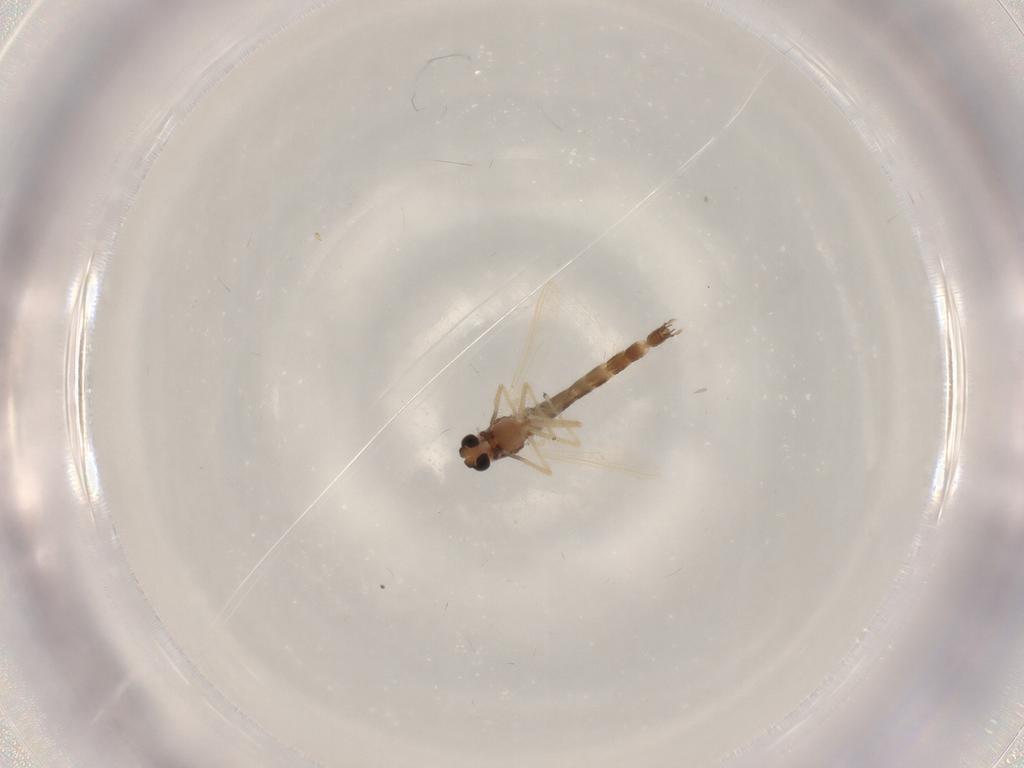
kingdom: Animalia
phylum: Arthropoda
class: Insecta
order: Diptera
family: Chironomidae
